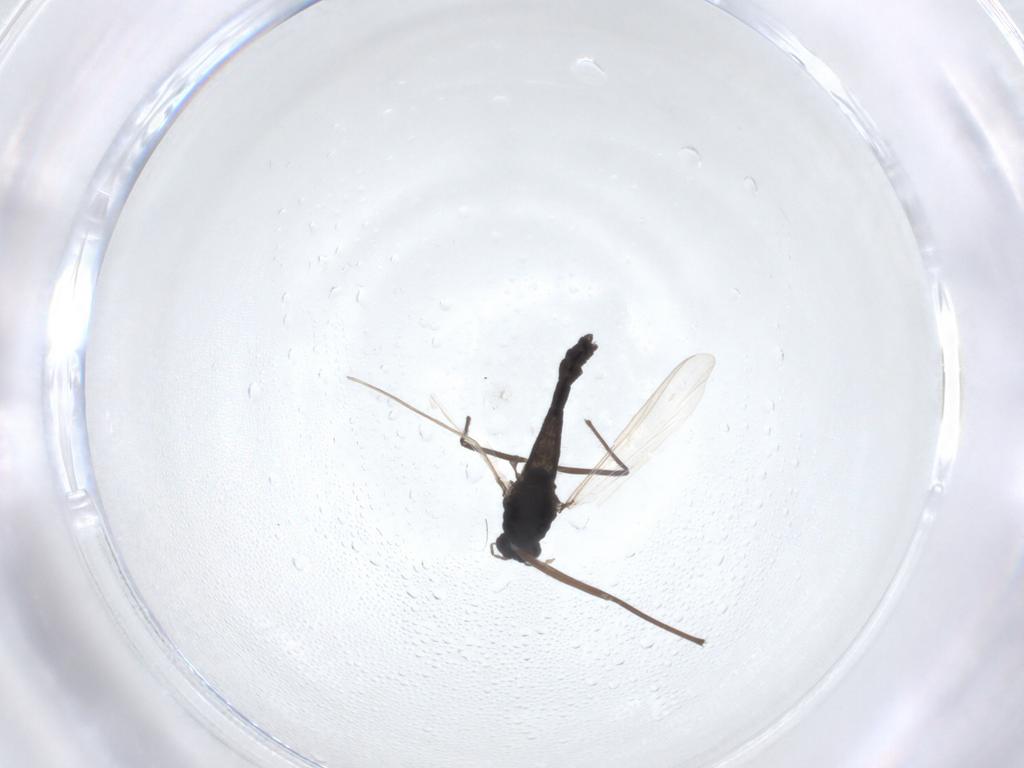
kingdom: Animalia
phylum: Arthropoda
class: Insecta
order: Diptera
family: Chironomidae
